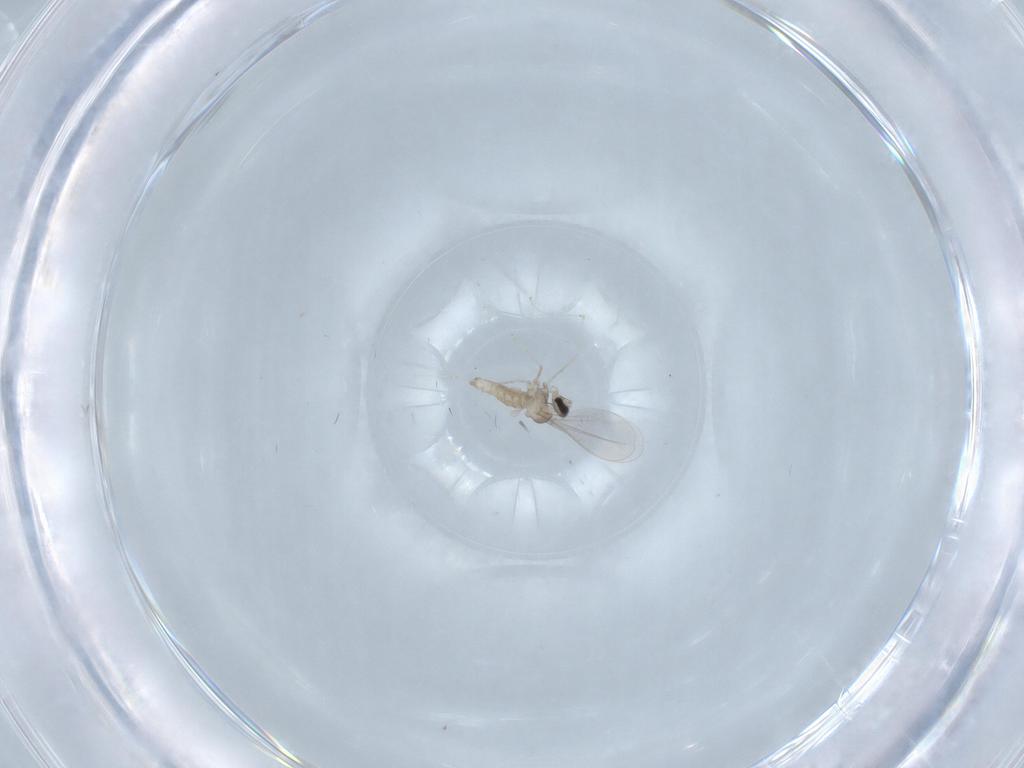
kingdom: Animalia
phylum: Arthropoda
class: Insecta
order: Diptera
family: Cecidomyiidae
